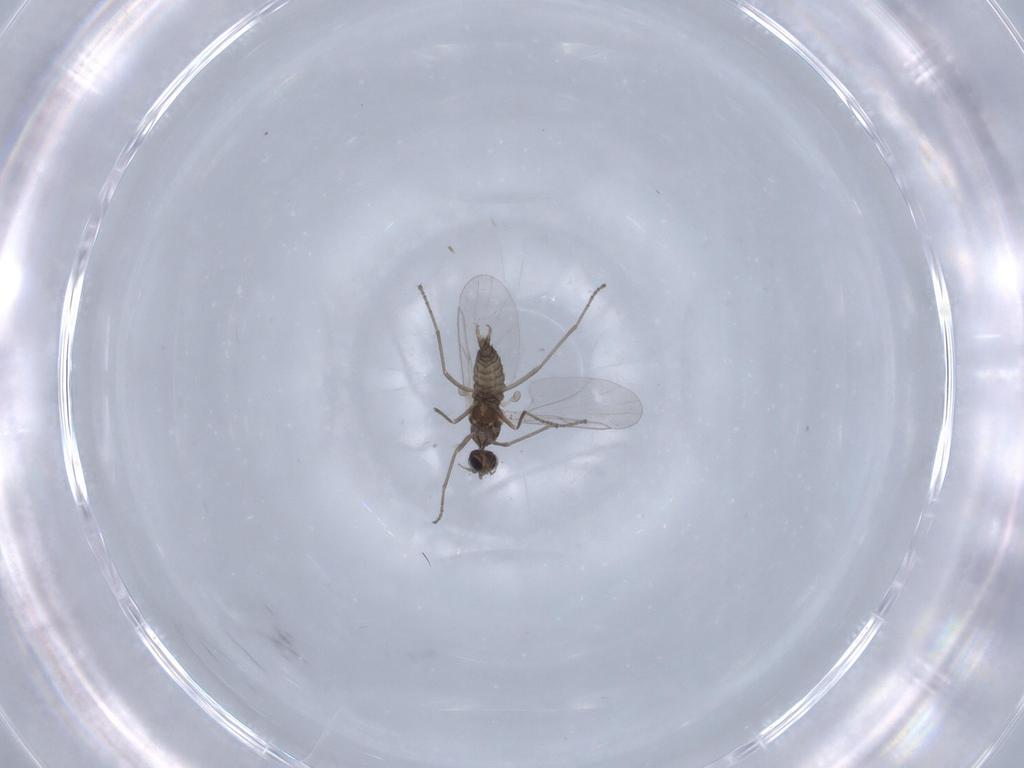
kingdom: Animalia
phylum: Arthropoda
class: Insecta
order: Diptera
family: Cecidomyiidae
